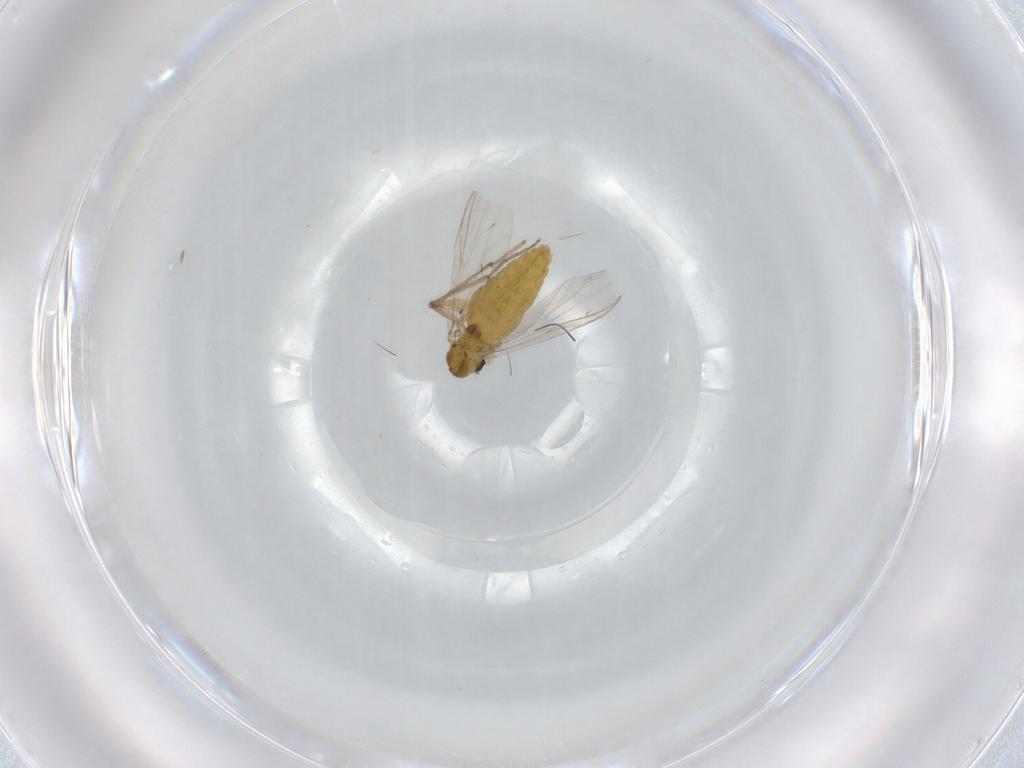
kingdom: Animalia
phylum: Arthropoda
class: Insecta
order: Diptera
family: Chironomidae
